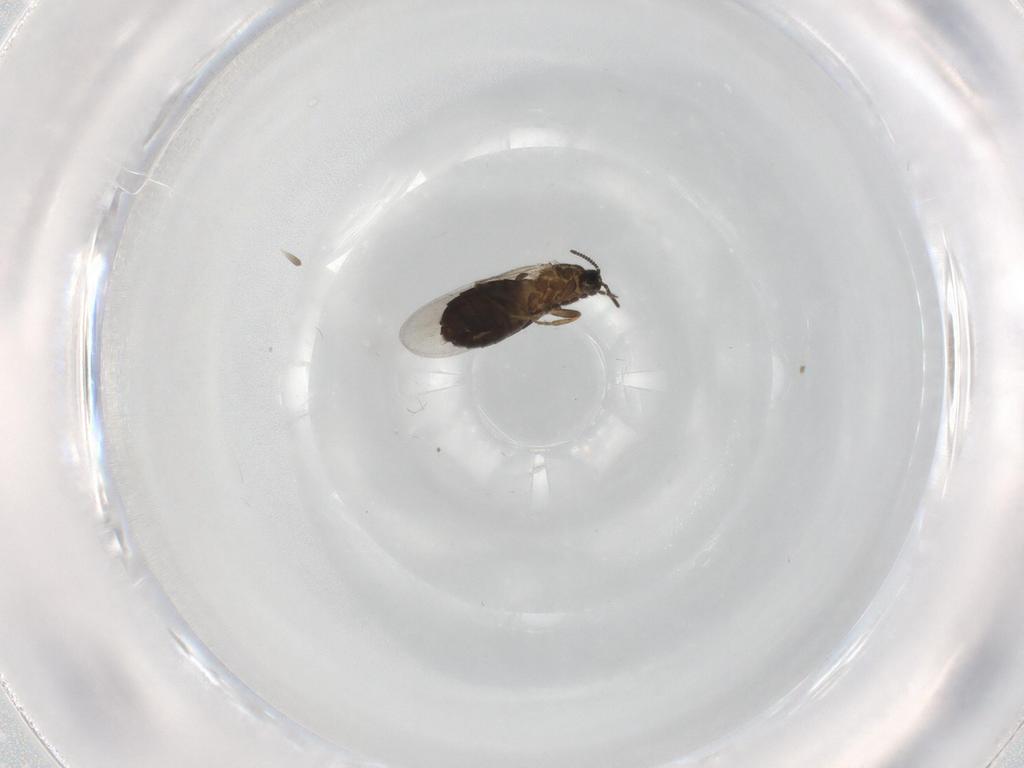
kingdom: Animalia
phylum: Arthropoda
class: Insecta
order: Diptera
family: Scatopsidae
